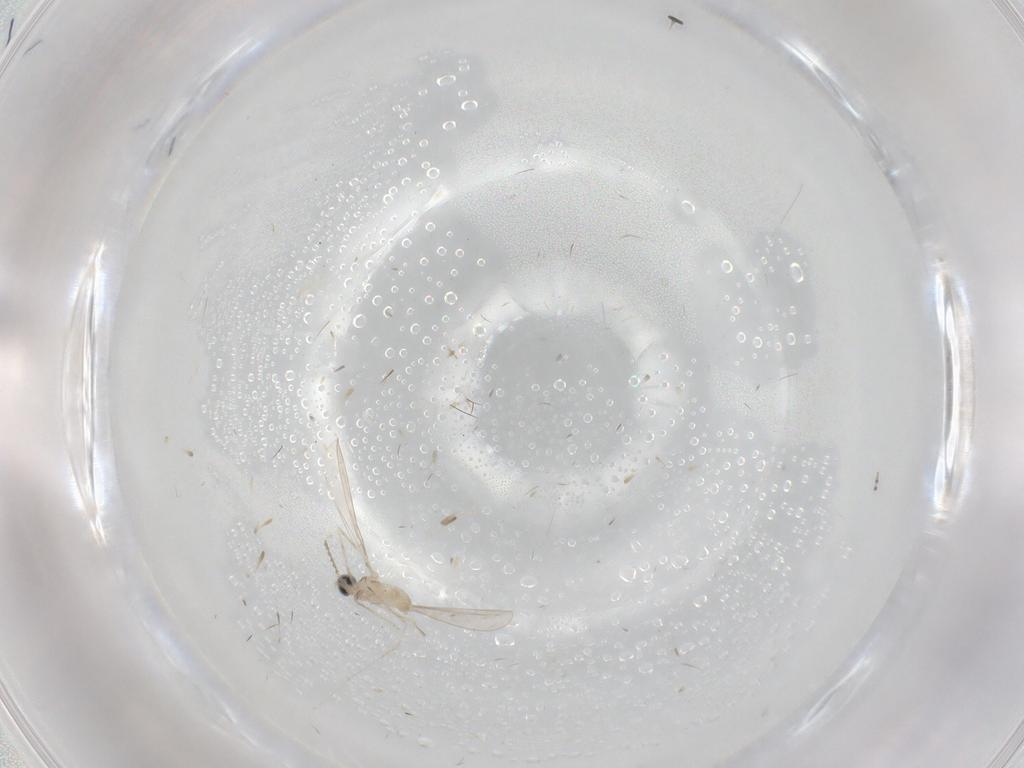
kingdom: Animalia
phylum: Arthropoda
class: Insecta
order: Diptera
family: Cecidomyiidae
